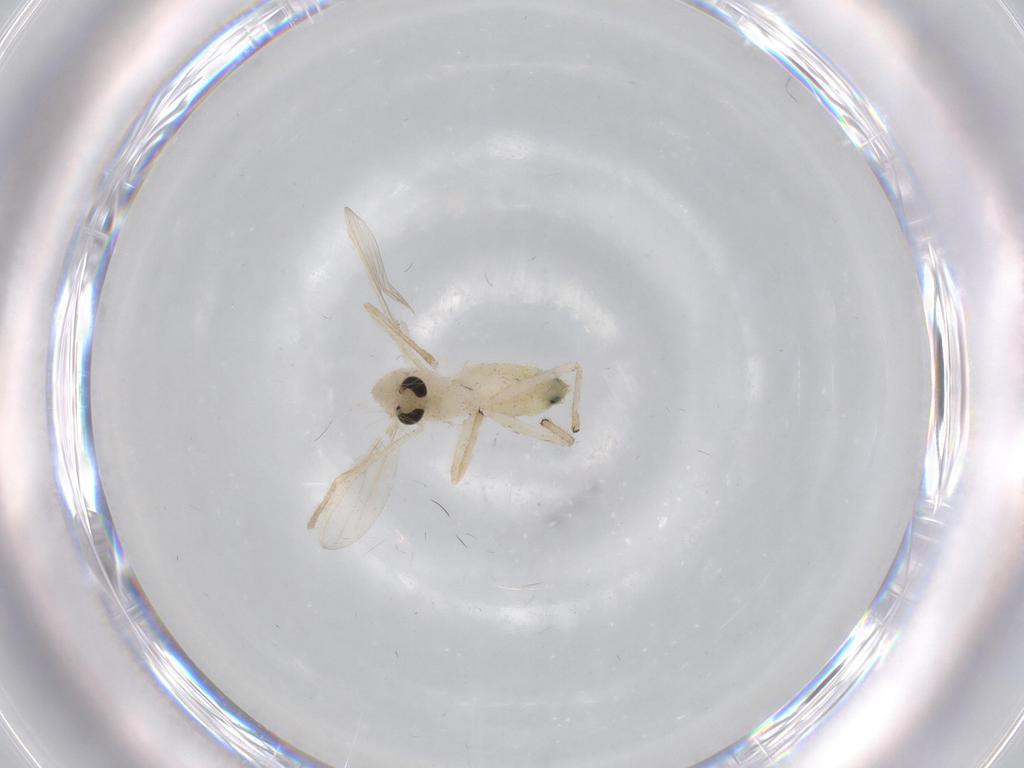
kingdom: Animalia
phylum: Arthropoda
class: Insecta
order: Diptera
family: Chironomidae
